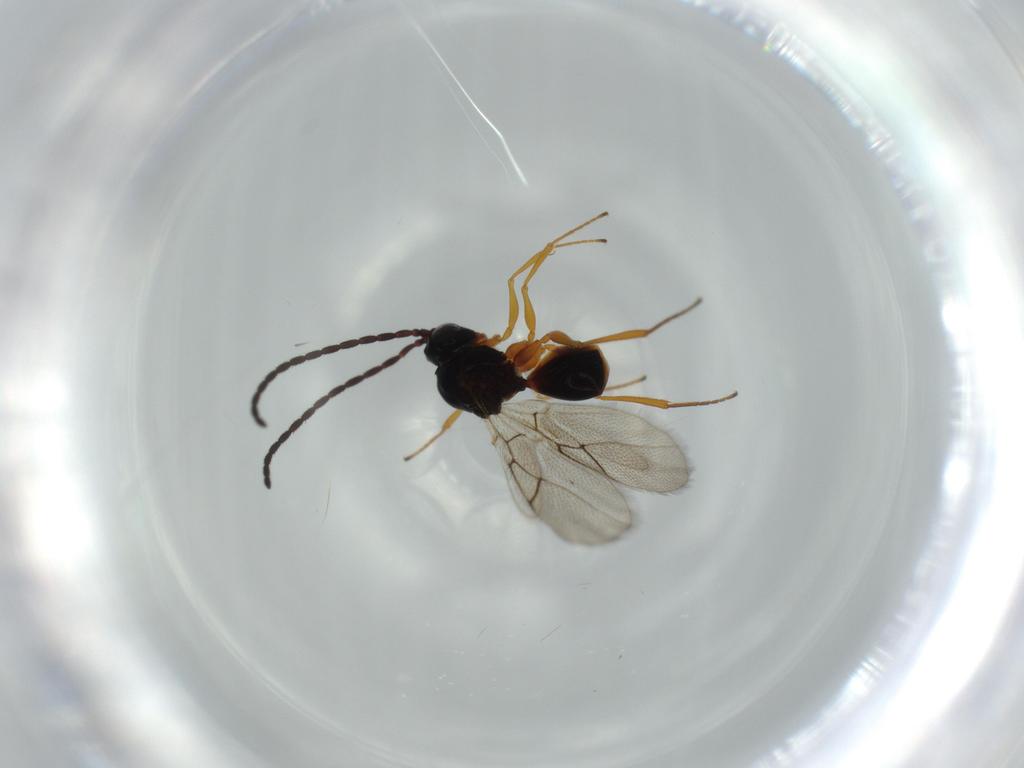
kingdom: Animalia
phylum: Arthropoda
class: Insecta
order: Hymenoptera
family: Figitidae
